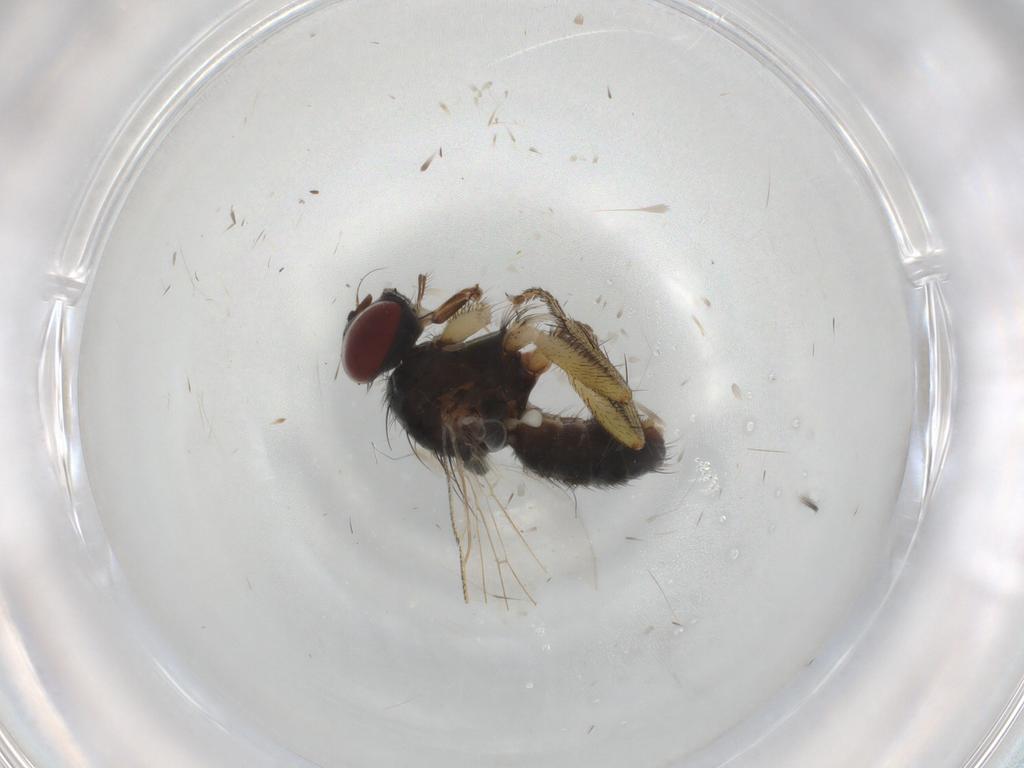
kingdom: Animalia
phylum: Arthropoda
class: Insecta
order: Diptera
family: Muscidae
